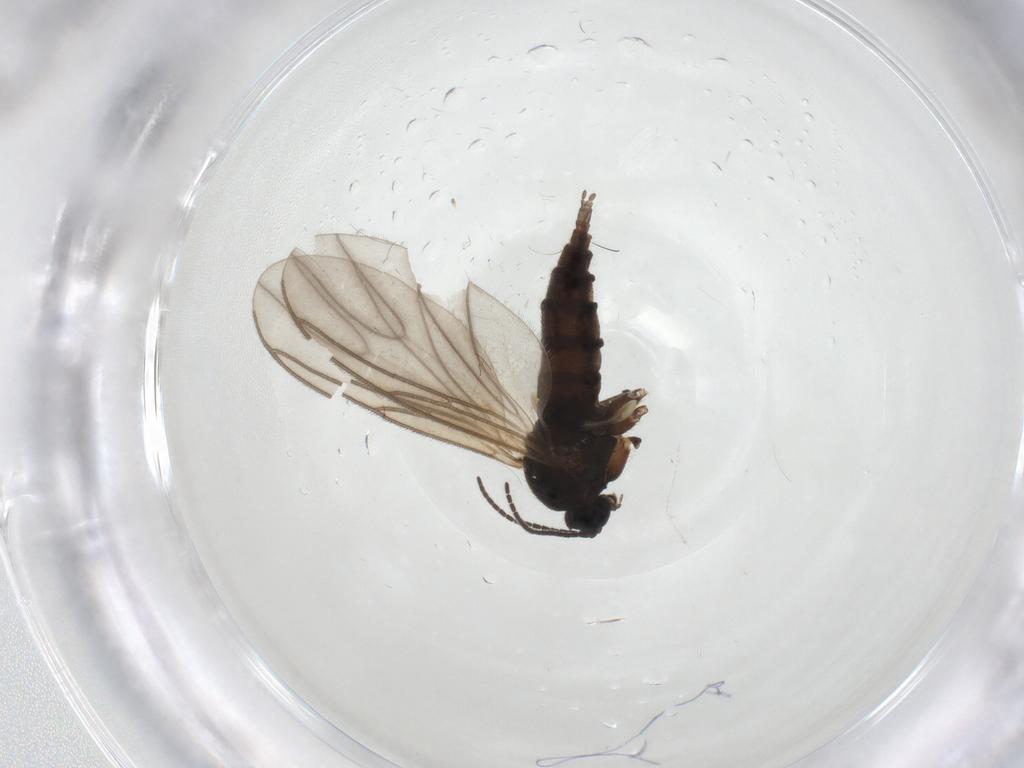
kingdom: Animalia
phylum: Arthropoda
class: Insecta
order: Diptera
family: Sciaridae
